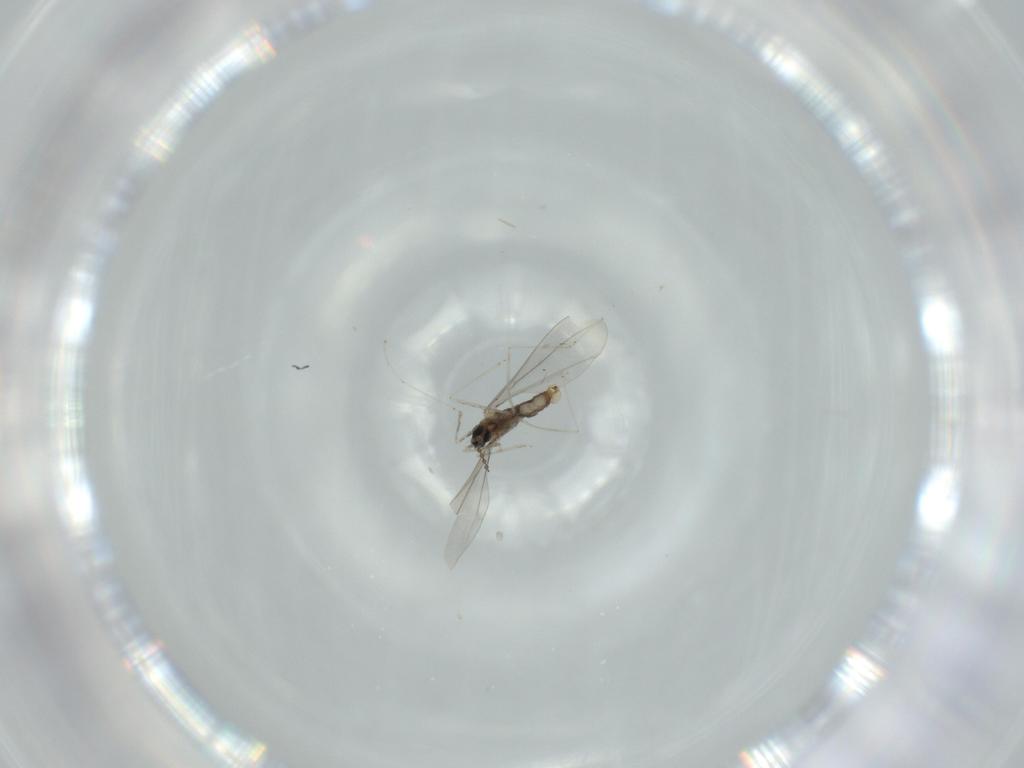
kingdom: Animalia
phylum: Arthropoda
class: Insecta
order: Diptera
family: Cecidomyiidae
